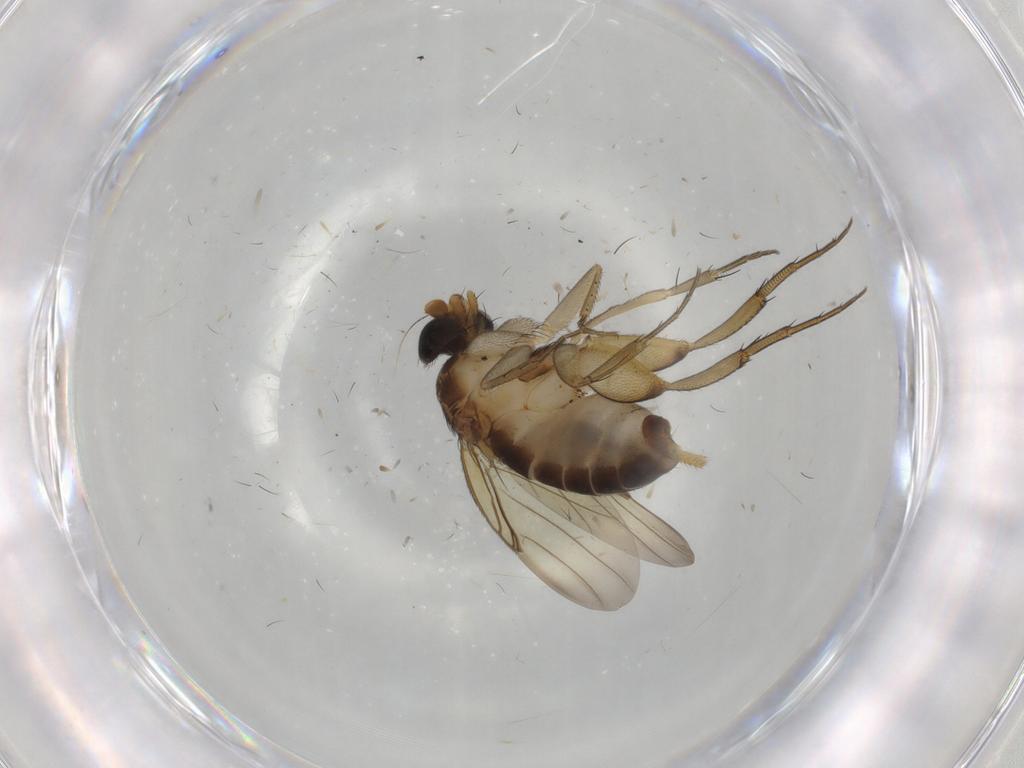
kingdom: Animalia
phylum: Arthropoda
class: Insecta
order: Diptera
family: Phoridae
